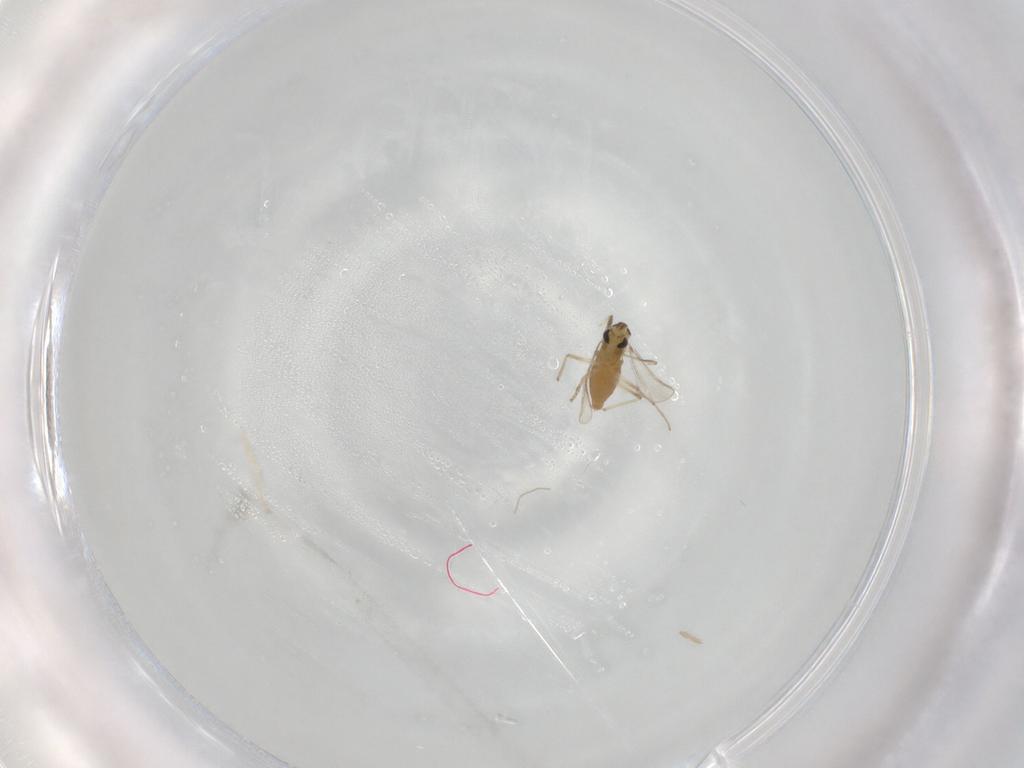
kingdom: Animalia
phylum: Arthropoda
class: Insecta
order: Diptera
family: Ceratopogonidae
